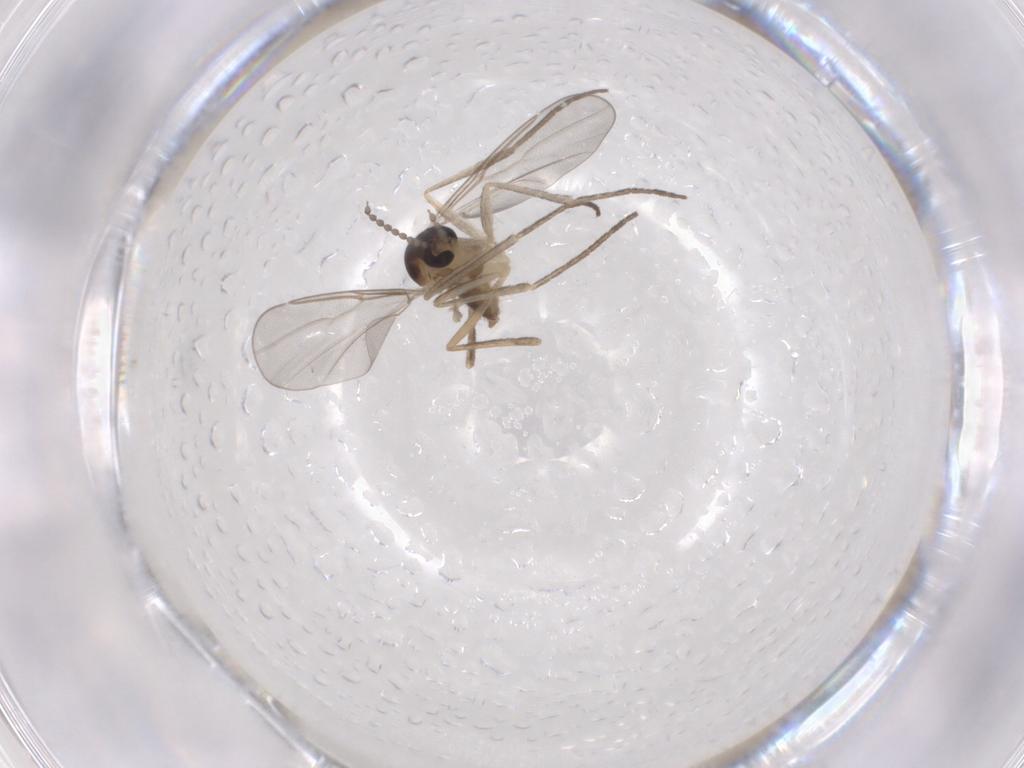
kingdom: Animalia
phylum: Arthropoda
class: Insecta
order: Diptera
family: Cecidomyiidae
